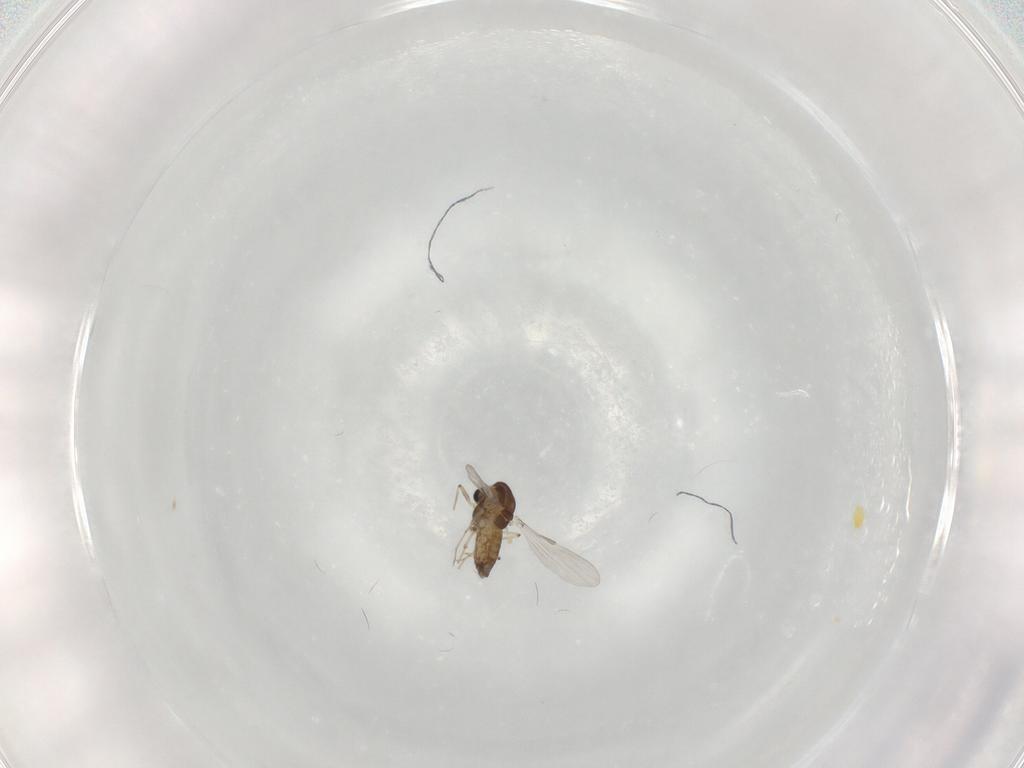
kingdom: Animalia
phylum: Arthropoda
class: Insecta
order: Diptera
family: Chironomidae
